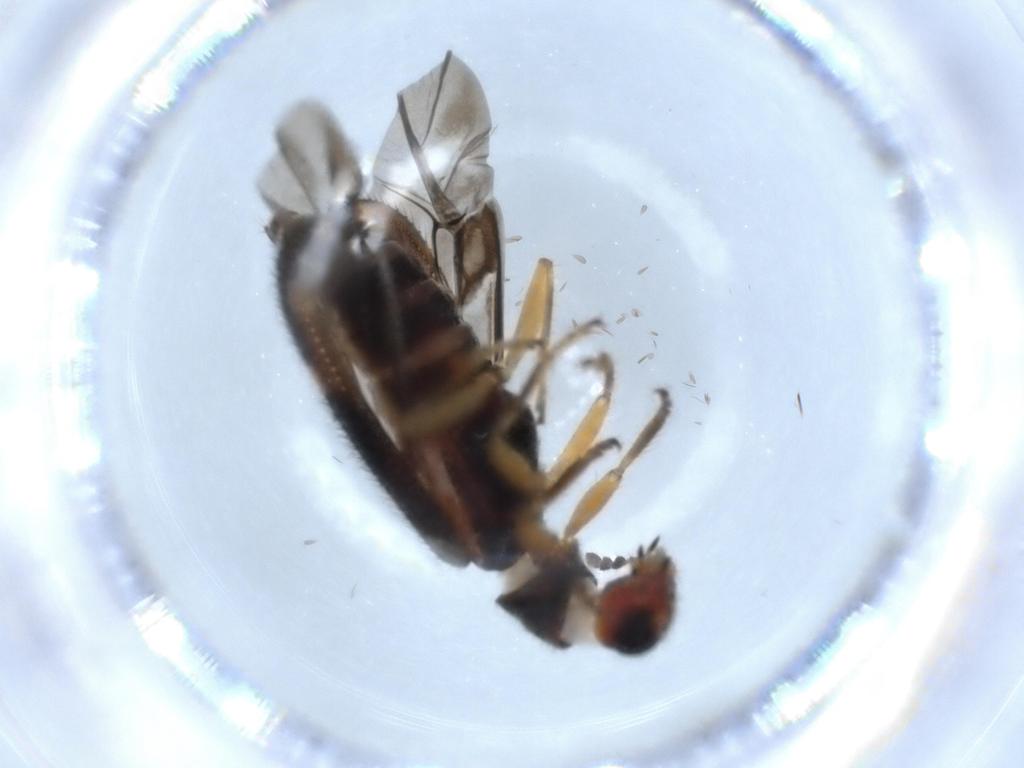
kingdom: Animalia
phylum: Arthropoda
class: Insecta
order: Coleoptera
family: Cleridae
